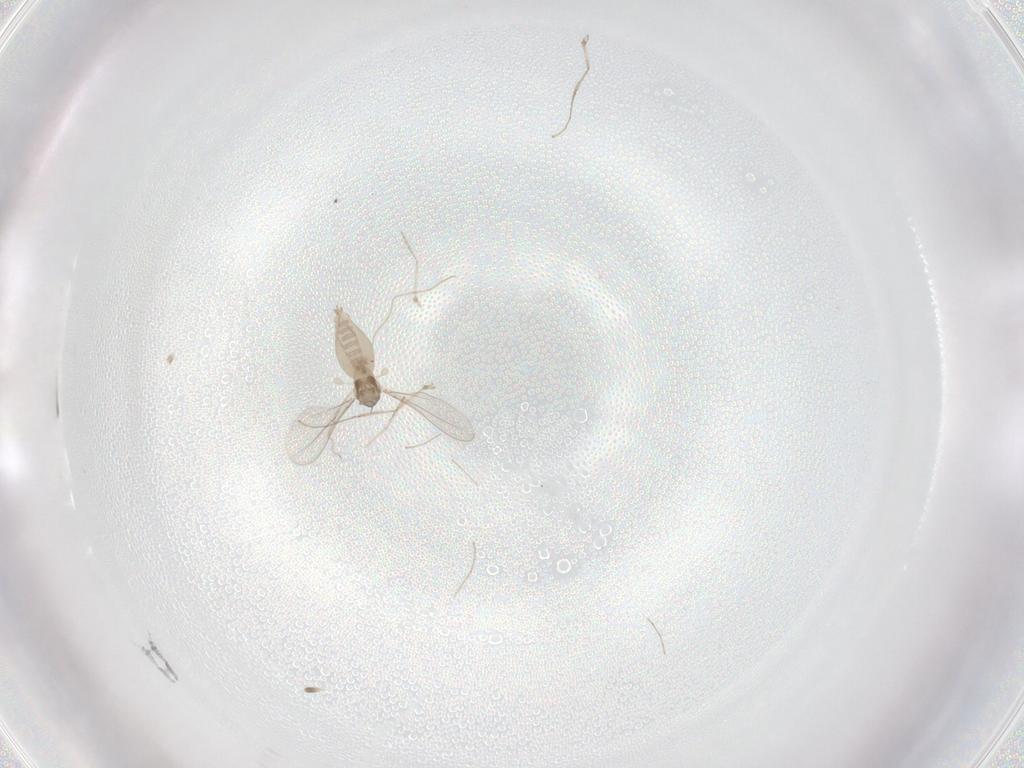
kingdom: Animalia
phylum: Arthropoda
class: Insecta
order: Diptera
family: Cecidomyiidae
